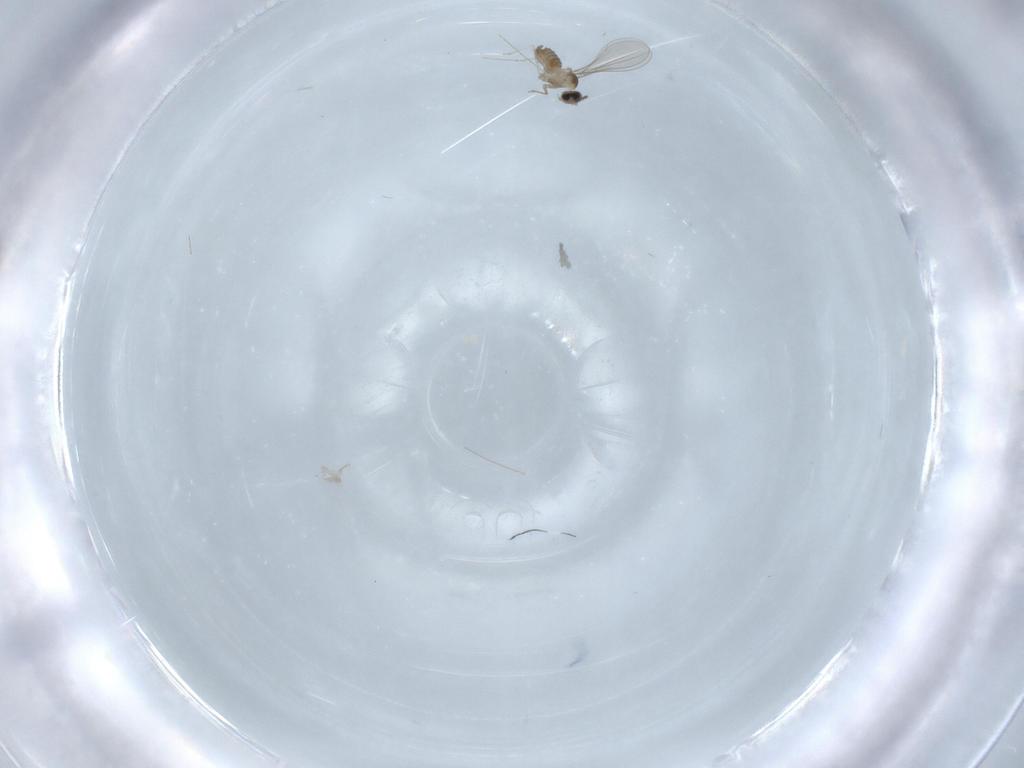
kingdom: Animalia
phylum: Arthropoda
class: Insecta
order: Diptera
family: Cecidomyiidae
